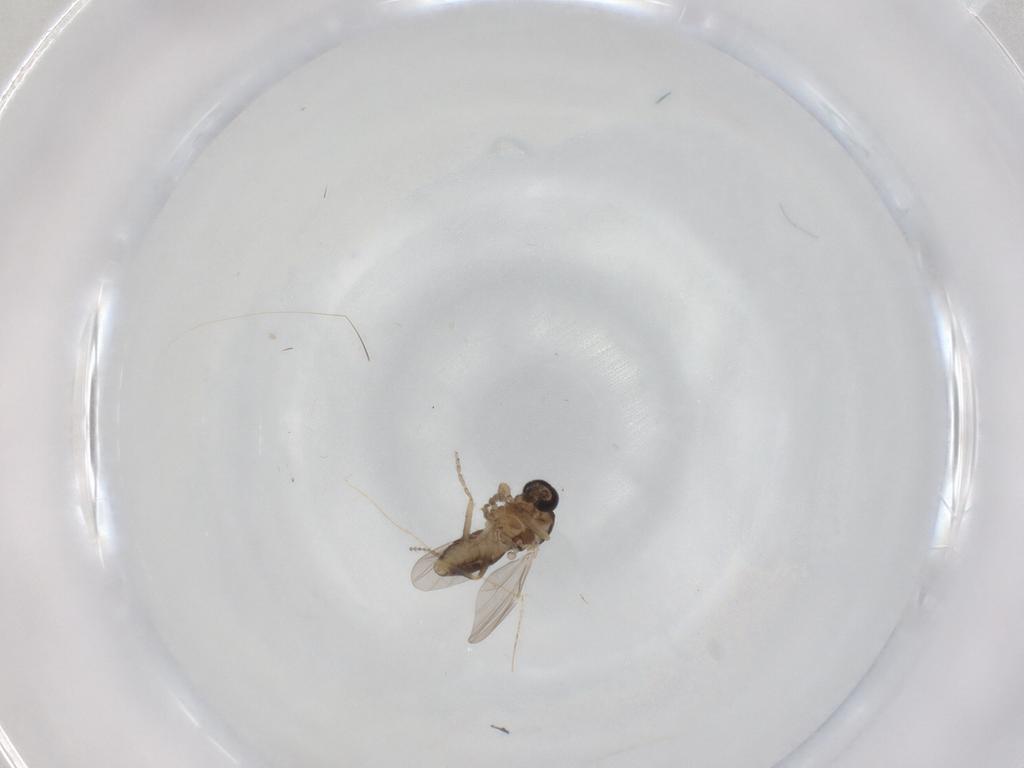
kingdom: Animalia
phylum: Arthropoda
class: Insecta
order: Diptera
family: Ceratopogonidae
